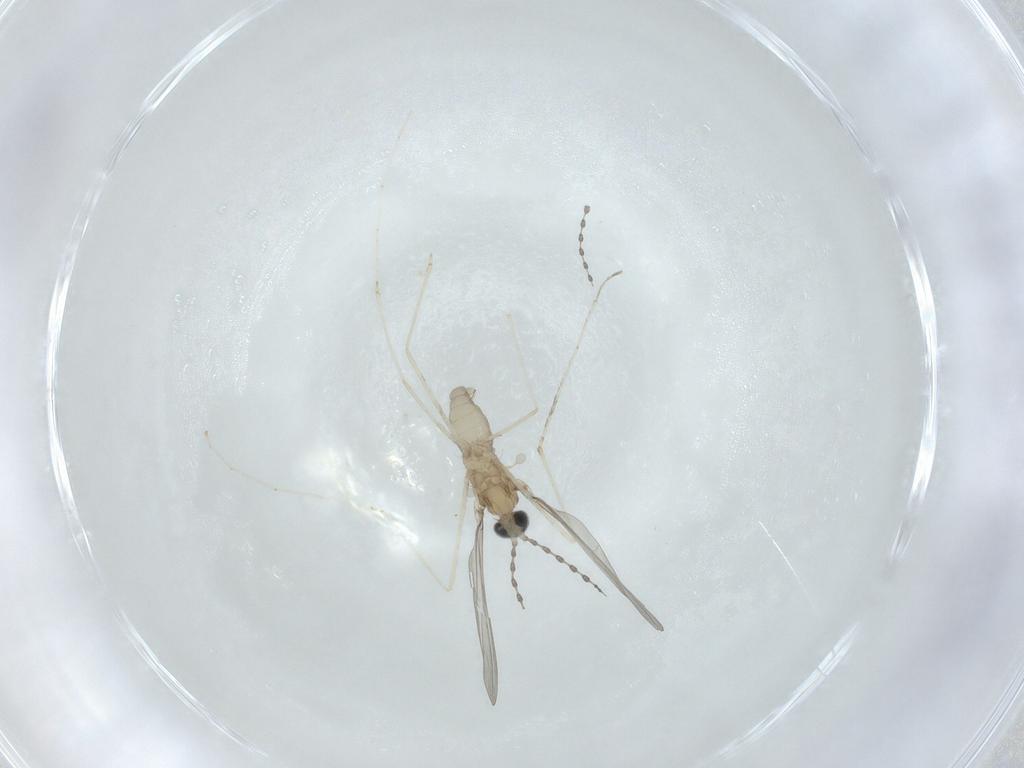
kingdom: Animalia
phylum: Arthropoda
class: Insecta
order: Diptera
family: Cecidomyiidae
